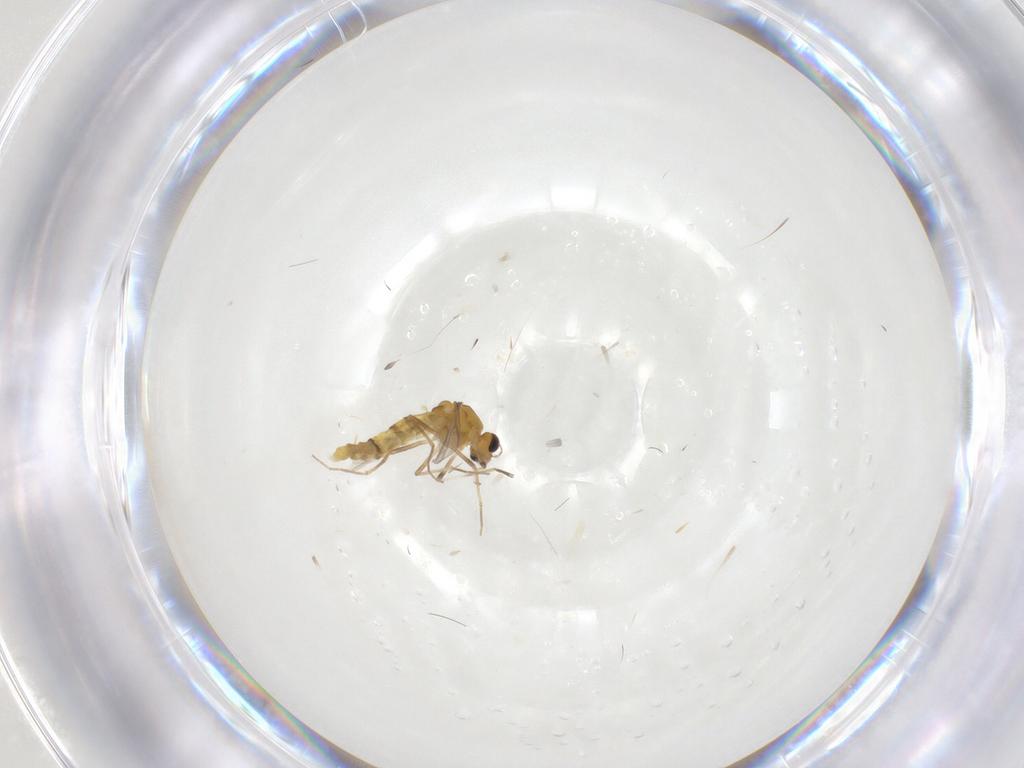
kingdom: Animalia
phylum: Arthropoda
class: Insecta
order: Diptera
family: Chironomidae
